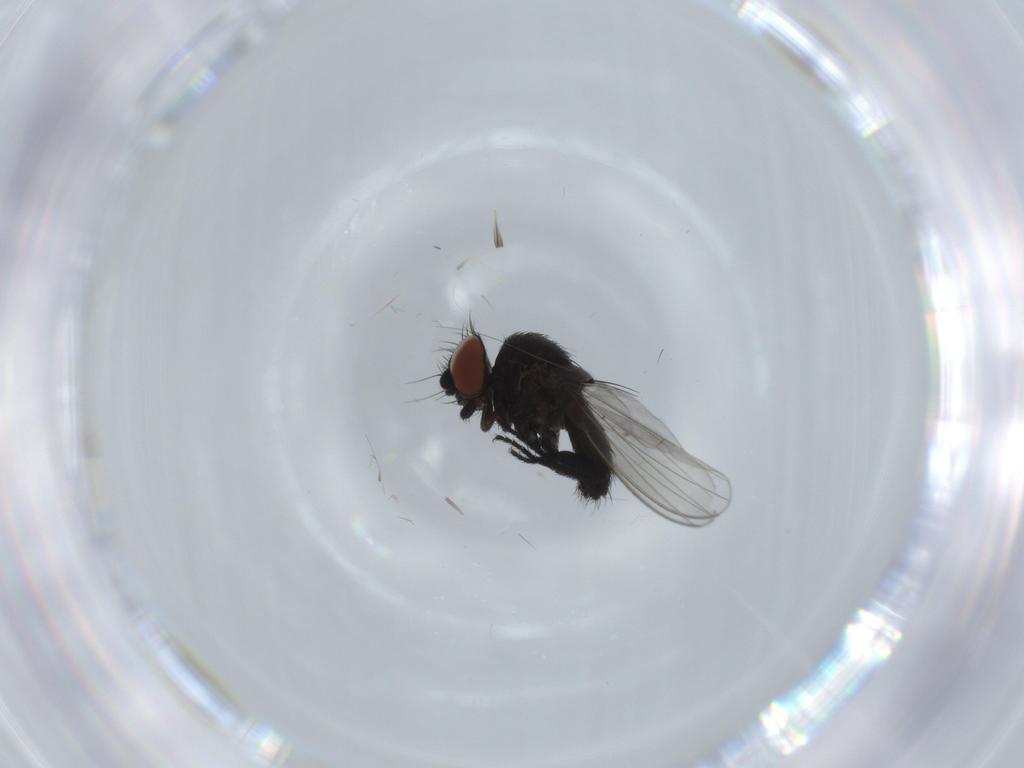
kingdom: Animalia
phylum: Arthropoda
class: Insecta
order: Diptera
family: Milichiidae
